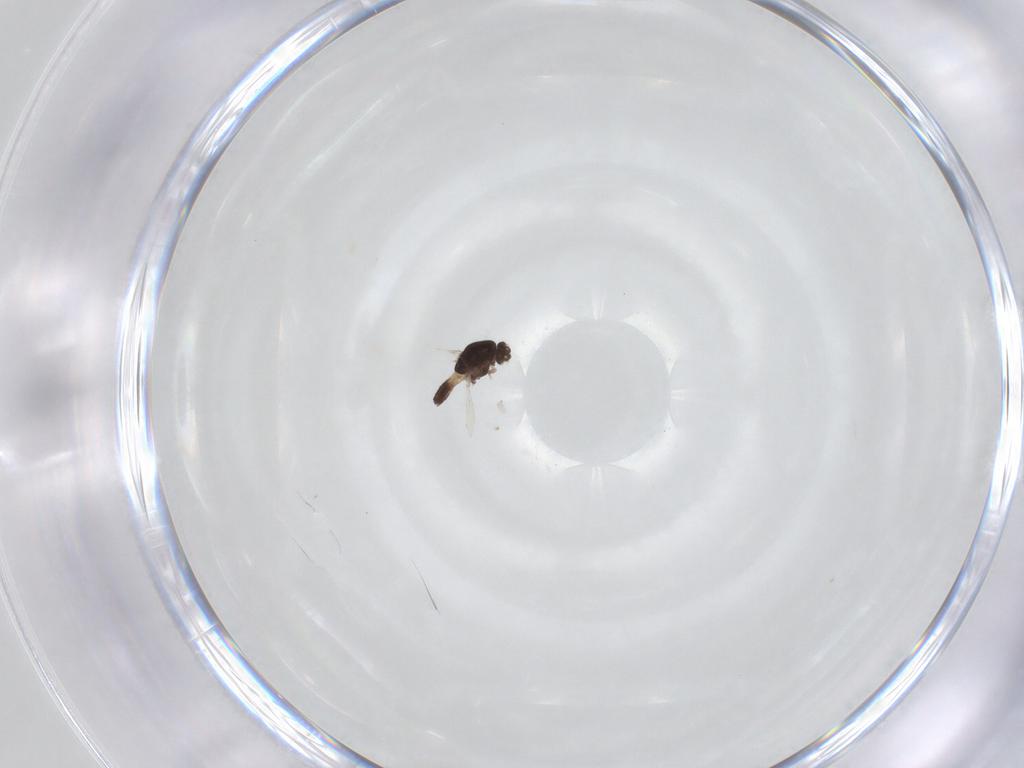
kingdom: Animalia
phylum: Arthropoda
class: Insecta
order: Diptera
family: Chironomidae
